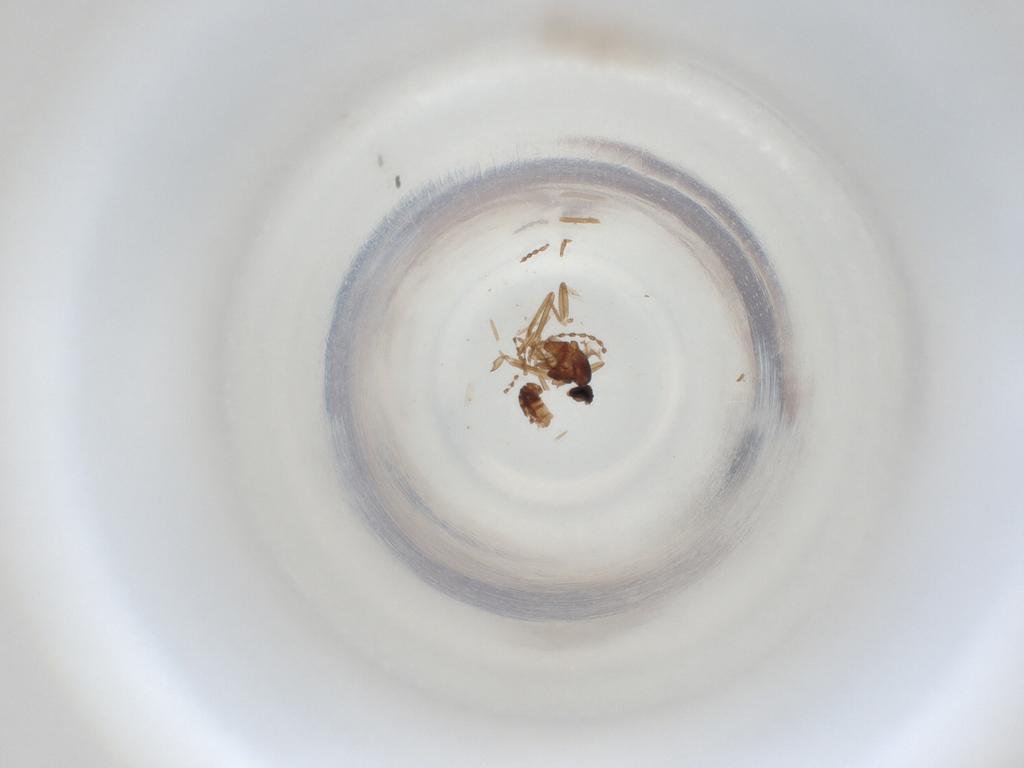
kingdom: Animalia
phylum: Arthropoda
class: Insecta
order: Diptera
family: Cecidomyiidae
